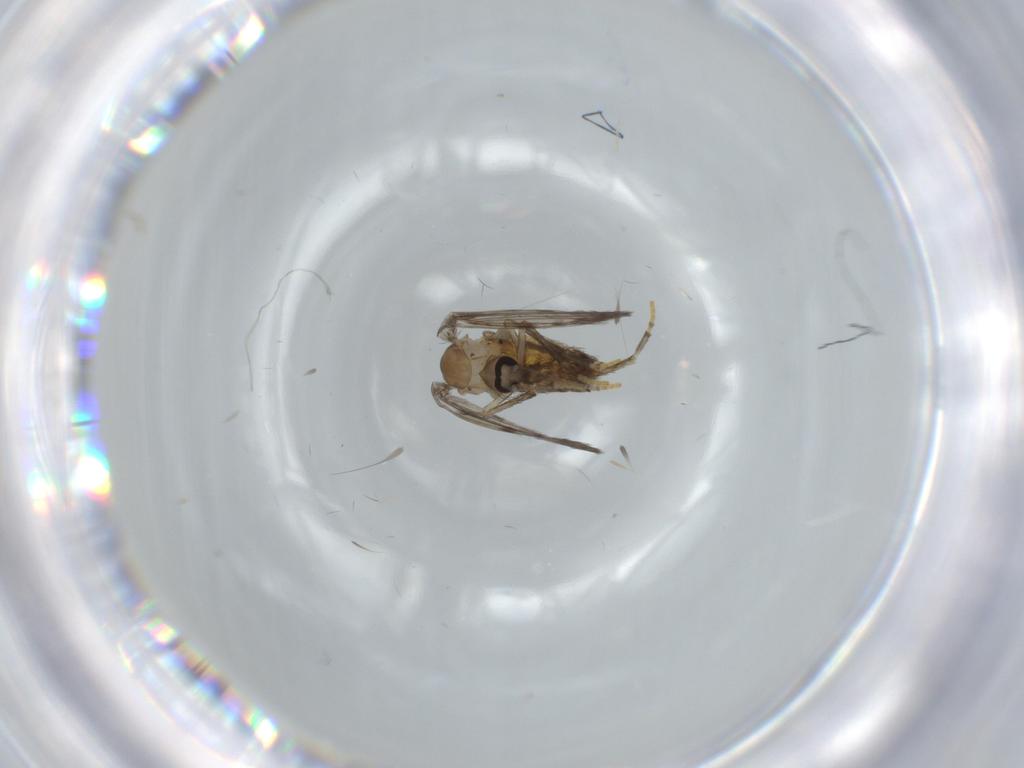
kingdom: Animalia
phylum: Arthropoda
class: Insecta
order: Diptera
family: Psychodidae
